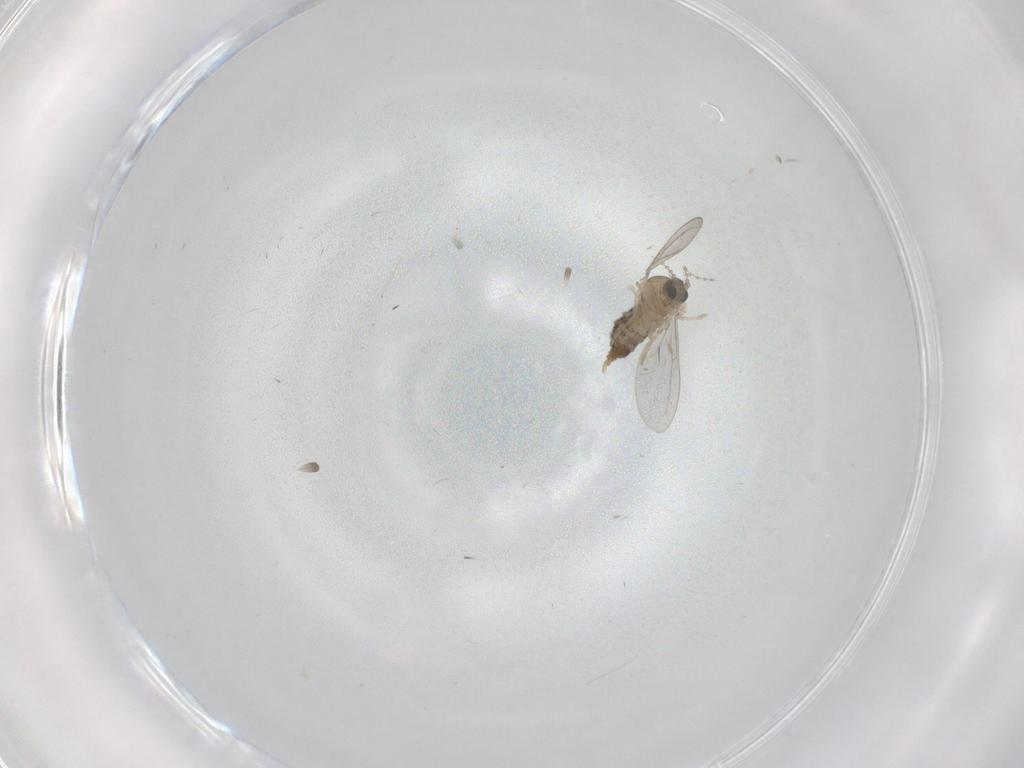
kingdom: Animalia
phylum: Arthropoda
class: Insecta
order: Diptera
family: Cecidomyiidae
